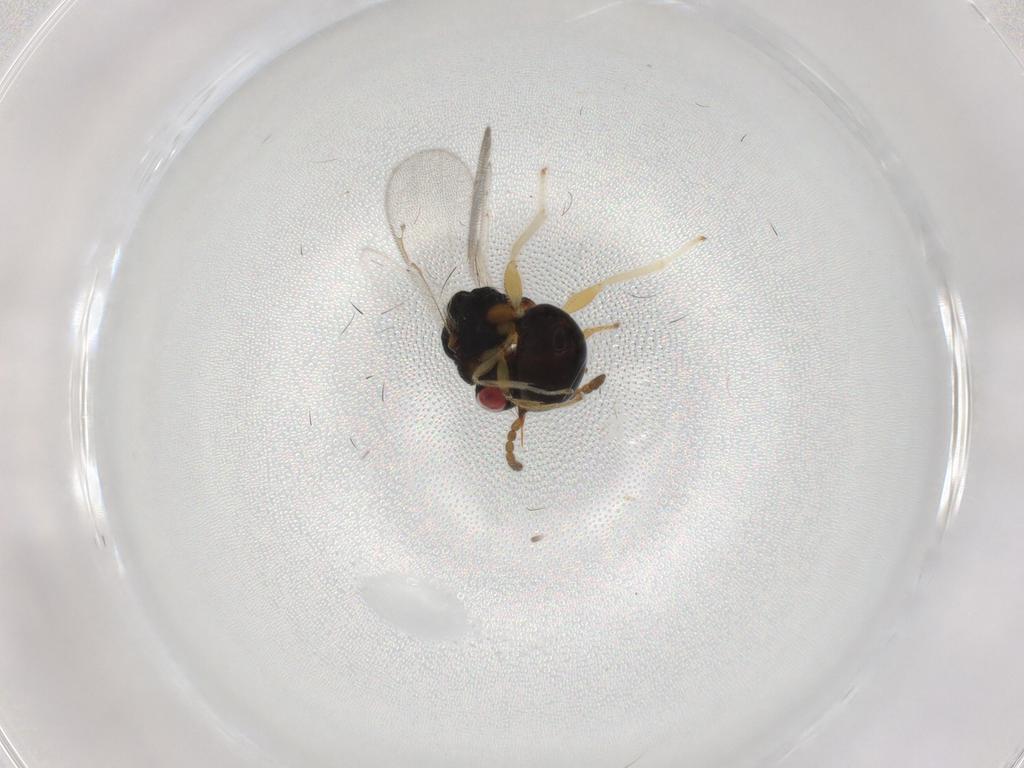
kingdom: Animalia
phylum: Arthropoda
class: Insecta
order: Hymenoptera
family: Eurytomidae
